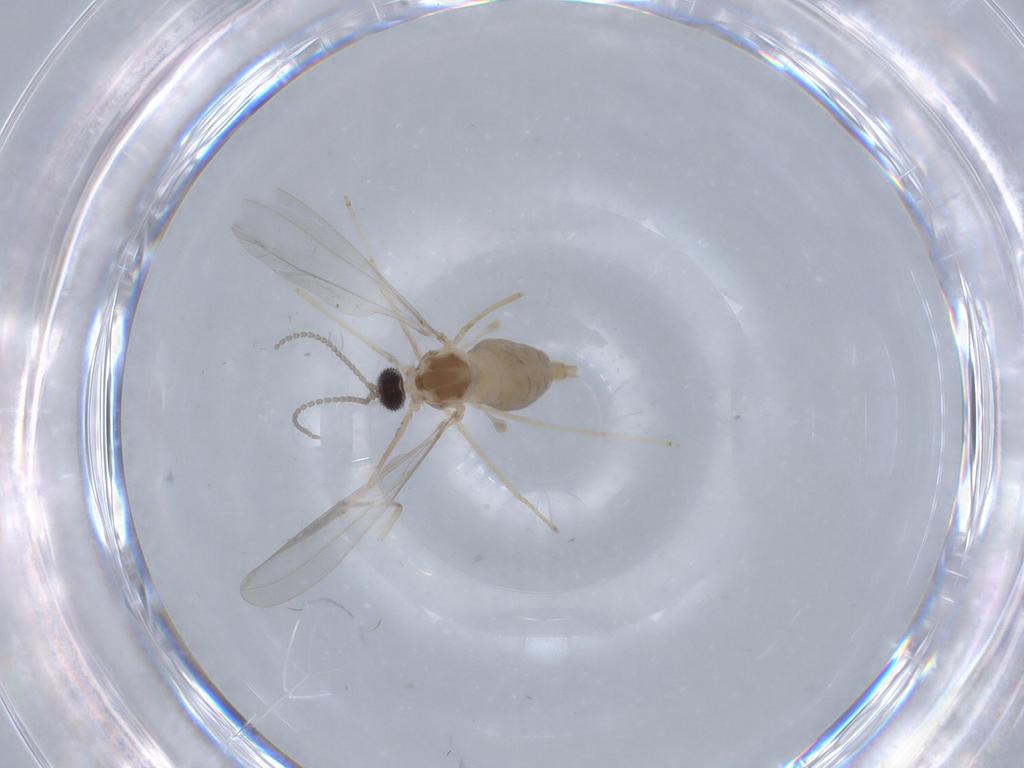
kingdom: Animalia
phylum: Arthropoda
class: Insecta
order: Diptera
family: Cecidomyiidae
